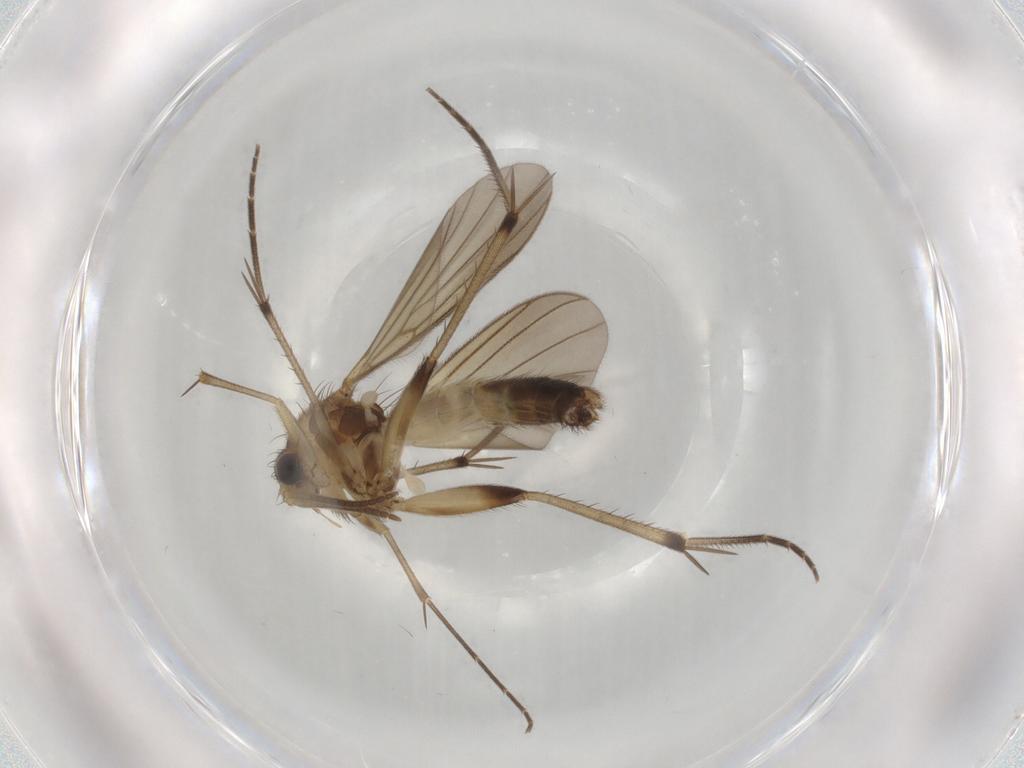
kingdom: Animalia
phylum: Arthropoda
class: Insecta
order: Diptera
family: Mycetophilidae
